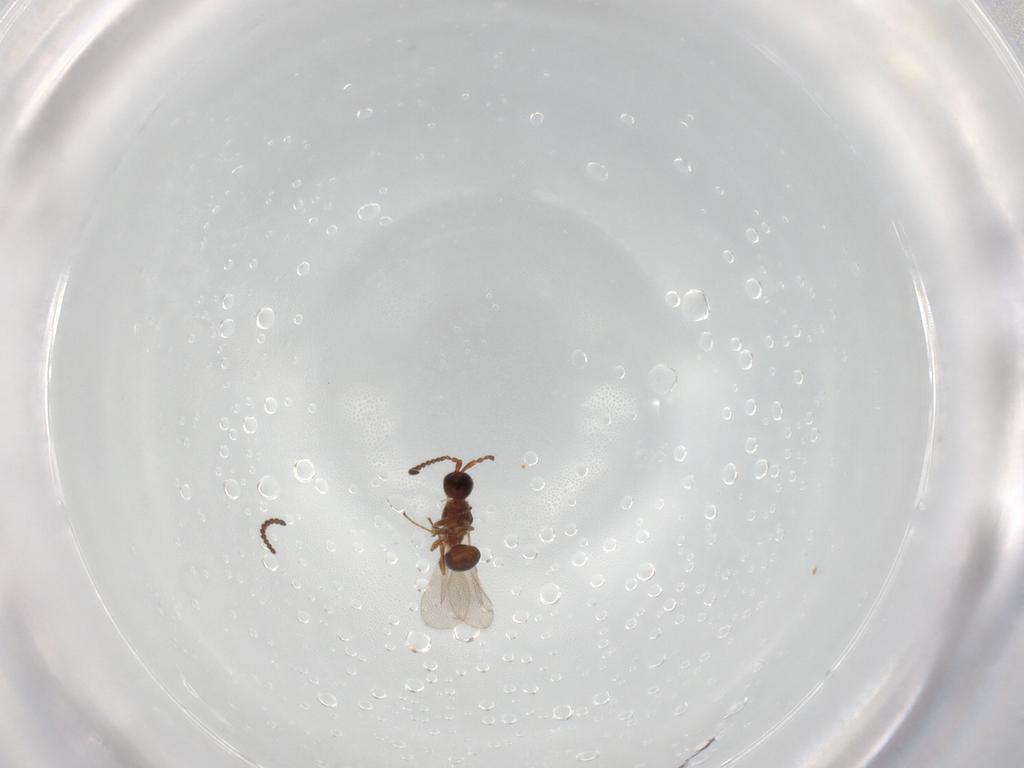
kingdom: Animalia
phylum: Arthropoda
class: Insecta
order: Hymenoptera
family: Diapriidae
